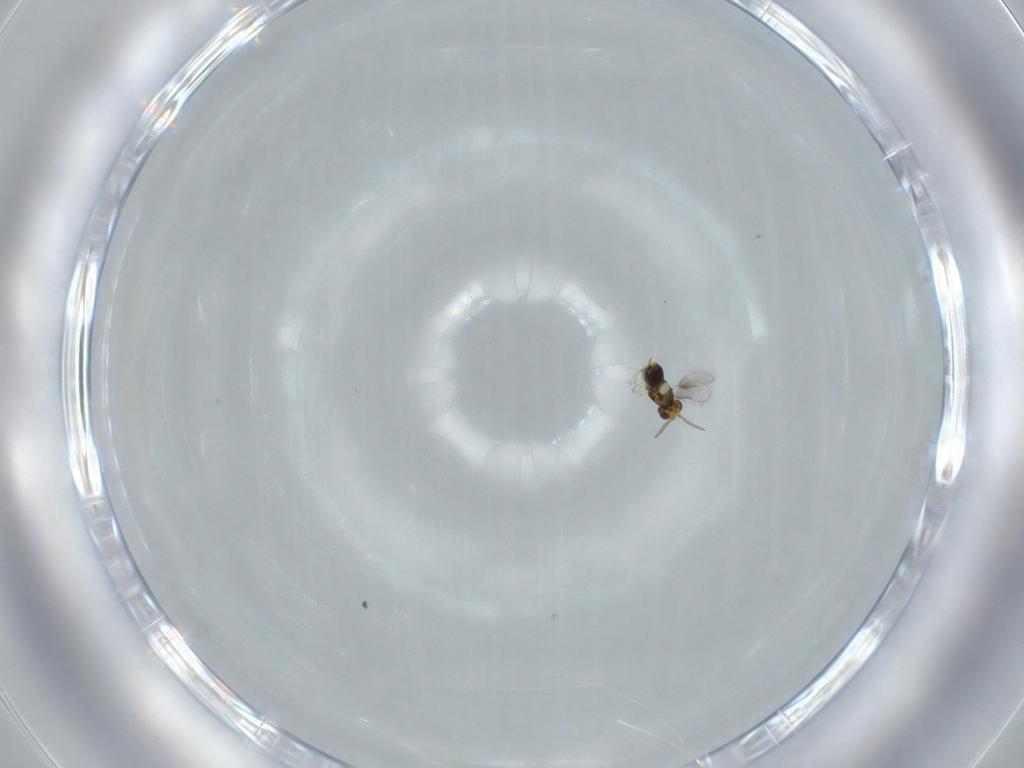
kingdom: Animalia
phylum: Arthropoda
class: Insecta
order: Hymenoptera
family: Aphelinidae
